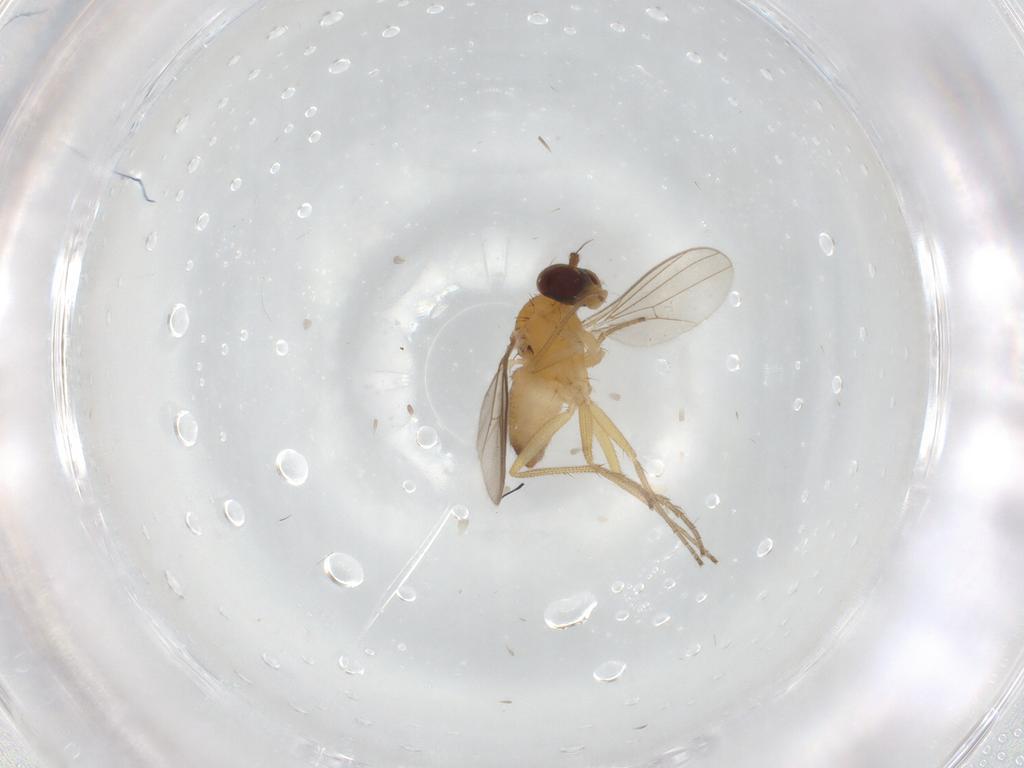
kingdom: Animalia
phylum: Arthropoda
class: Insecta
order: Diptera
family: Dolichopodidae
